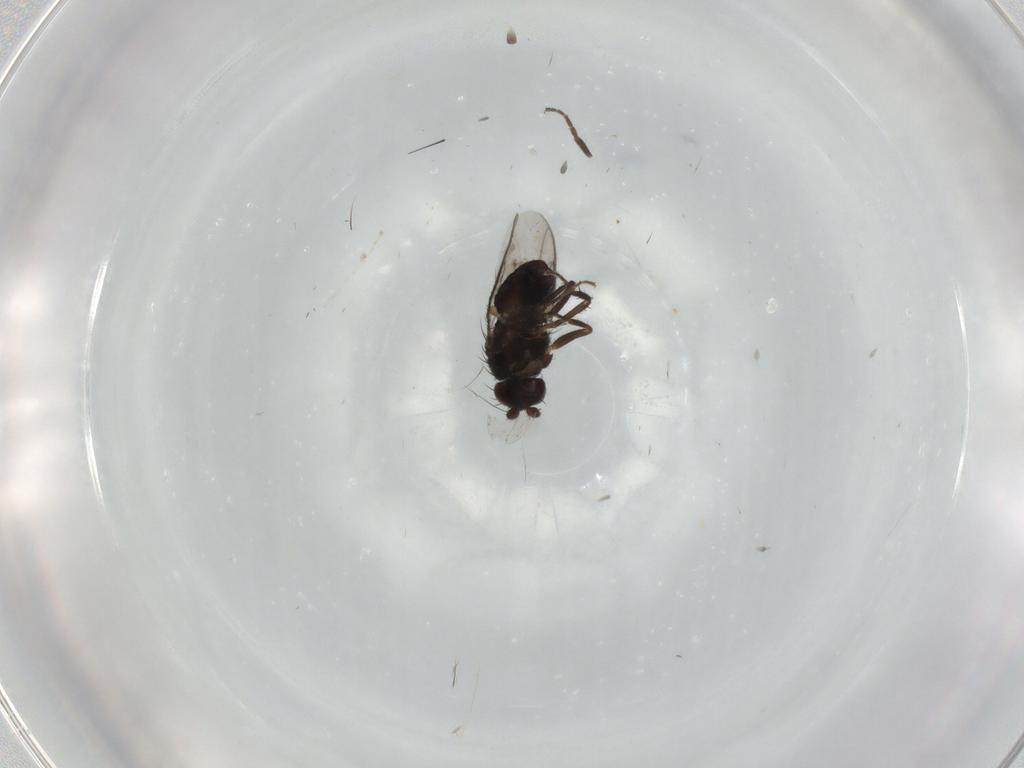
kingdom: Animalia
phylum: Arthropoda
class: Insecta
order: Diptera
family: Sphaeroceridae
